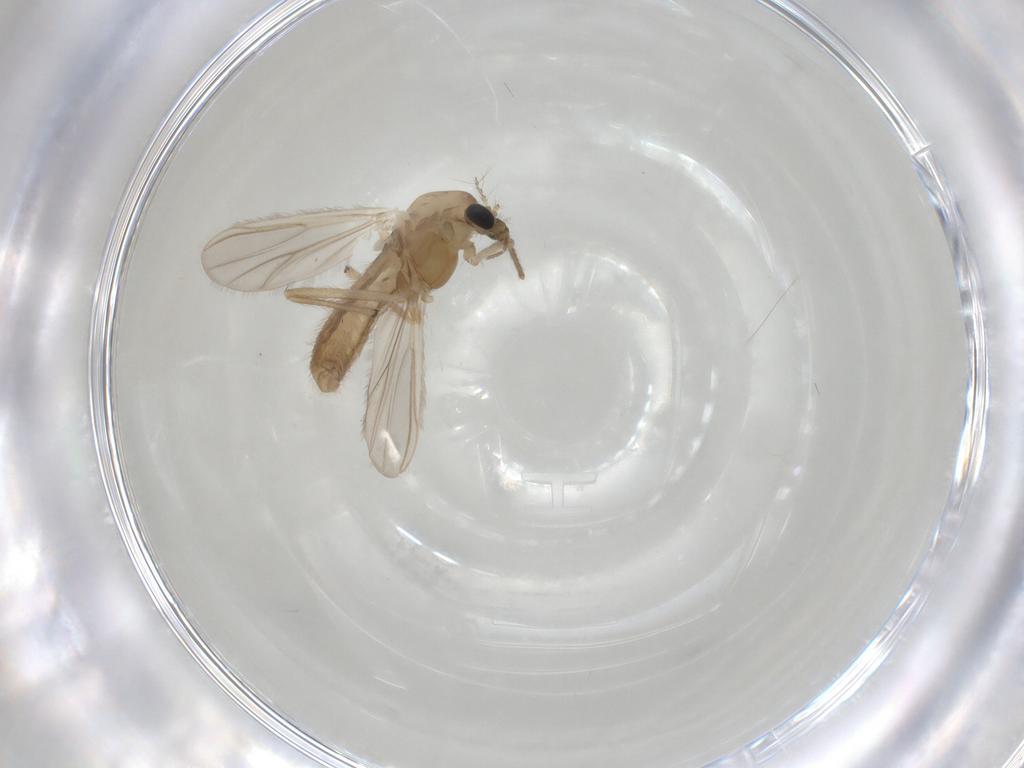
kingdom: Animalia
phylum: Arthropoda
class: Insecta
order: Diptera
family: Chironomidae
